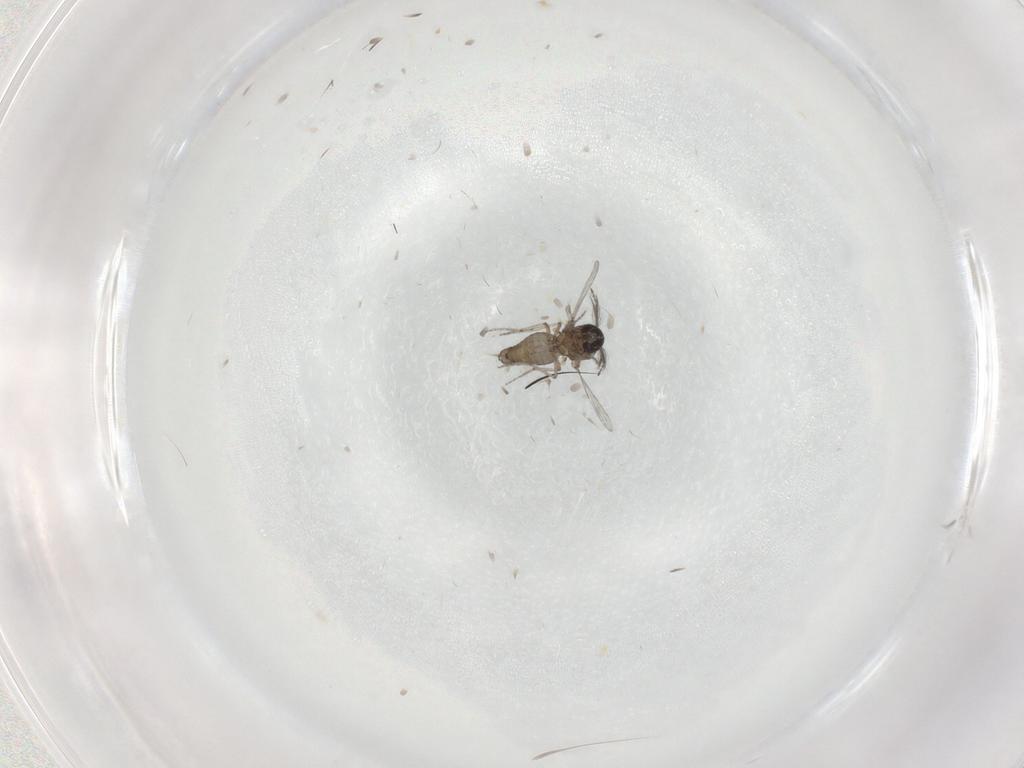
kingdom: Animalia
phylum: Arthropoda
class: Insecta
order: Diptera
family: Ceratopogonidae
